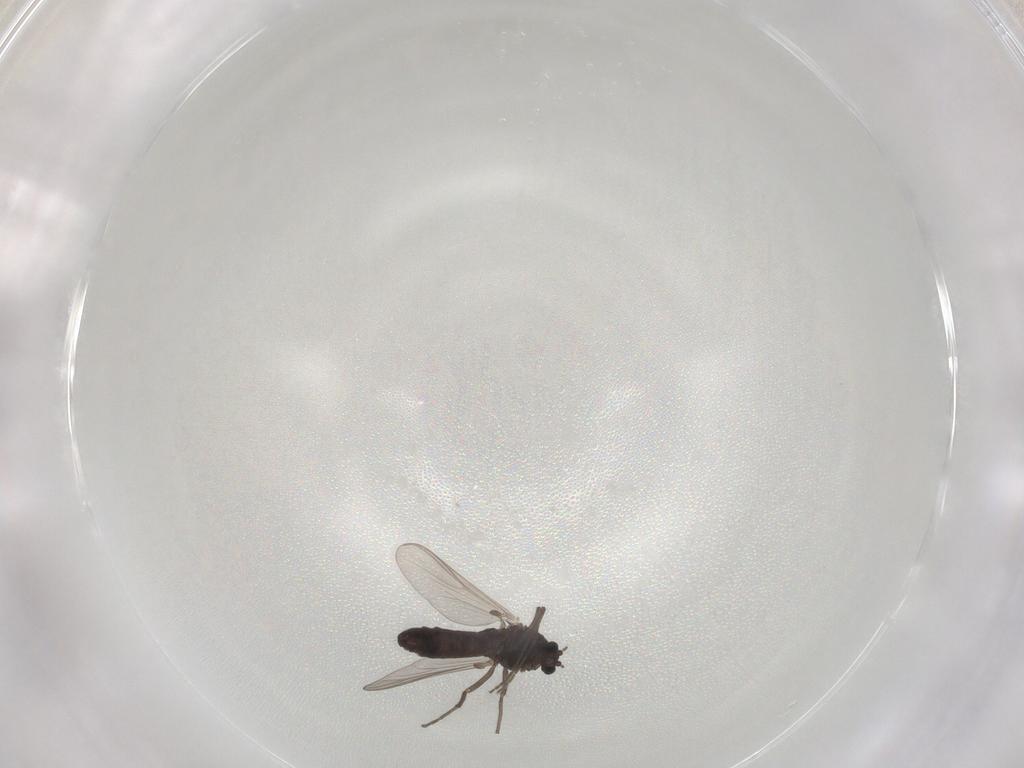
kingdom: Animalia
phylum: Arthropoda
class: Insecta
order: Diptera
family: Chironomidae
